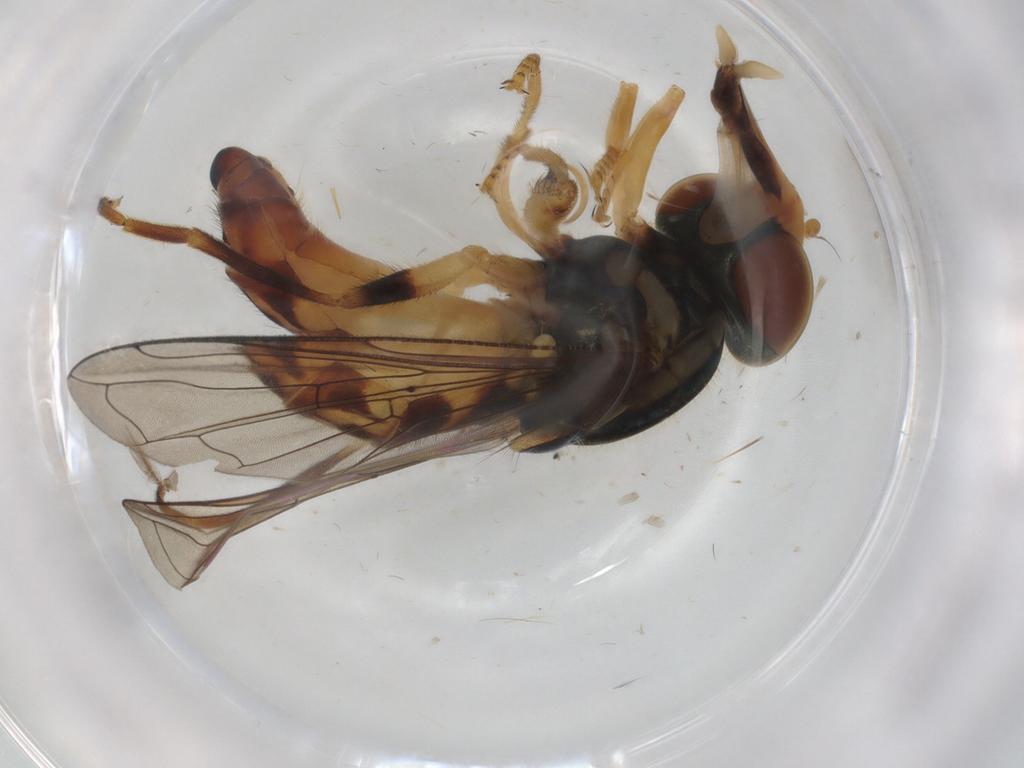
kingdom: Animalia
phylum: Arthropoda
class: Insecta
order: Diptera
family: Syrphidae
